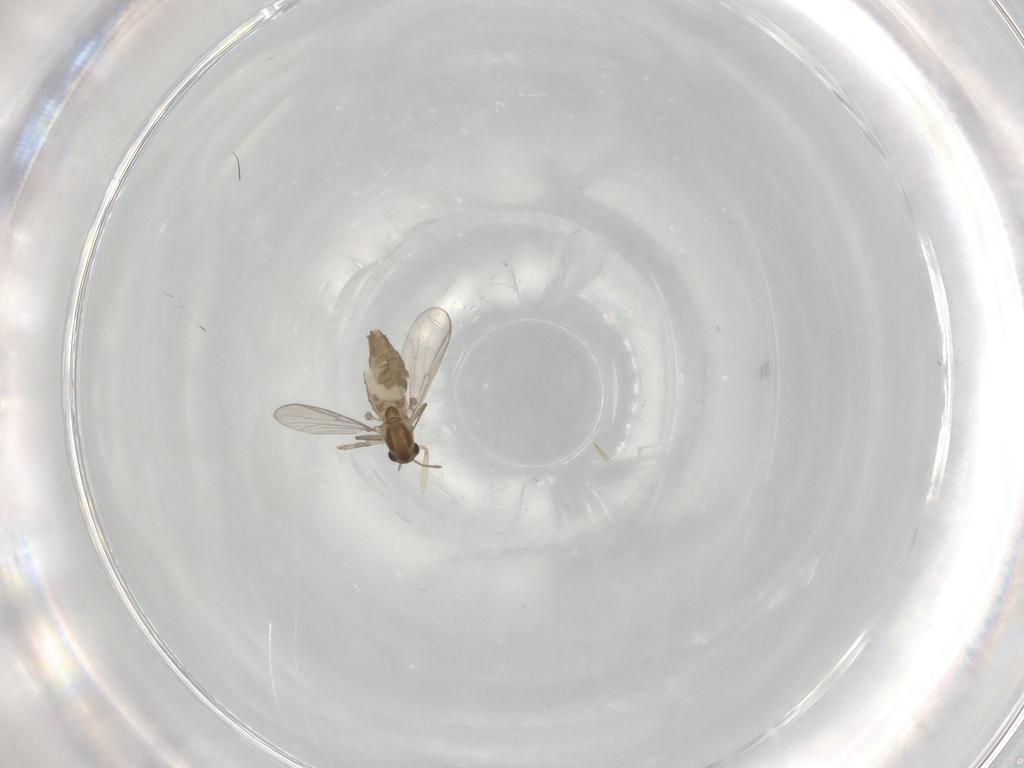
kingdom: Animalia
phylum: Arthropoda
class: Insecta
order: Diptera
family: Chironomidae
